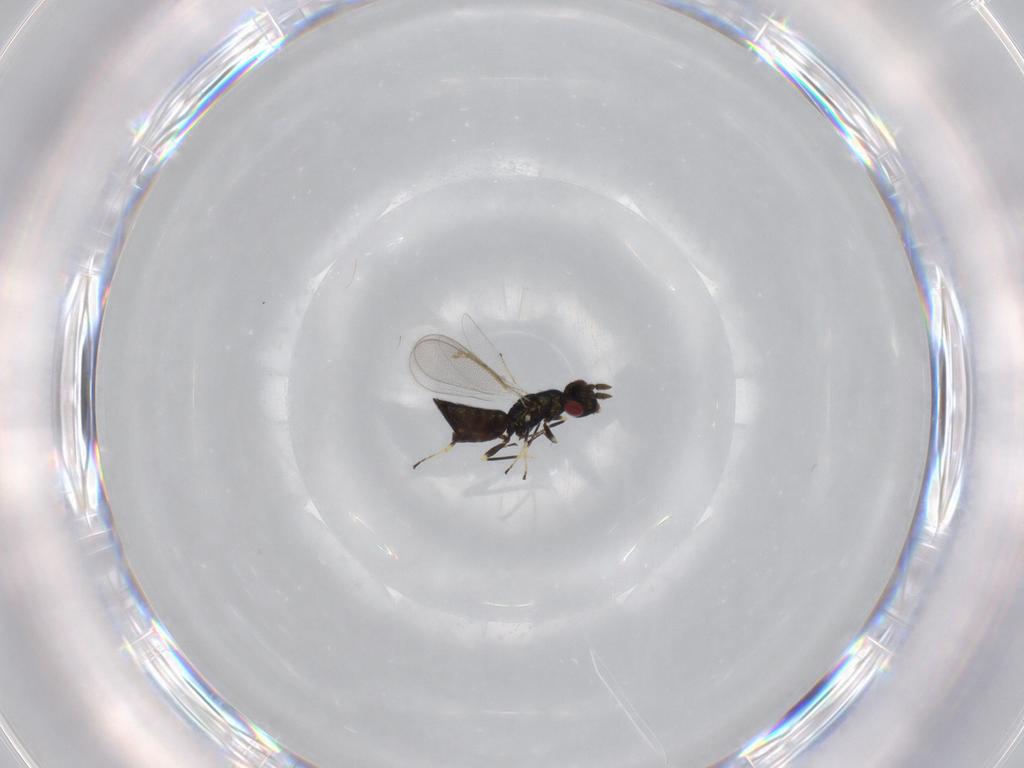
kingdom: Animalia
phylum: Arthropoda
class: Insecta
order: Hymenoptera
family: Eulophidae
